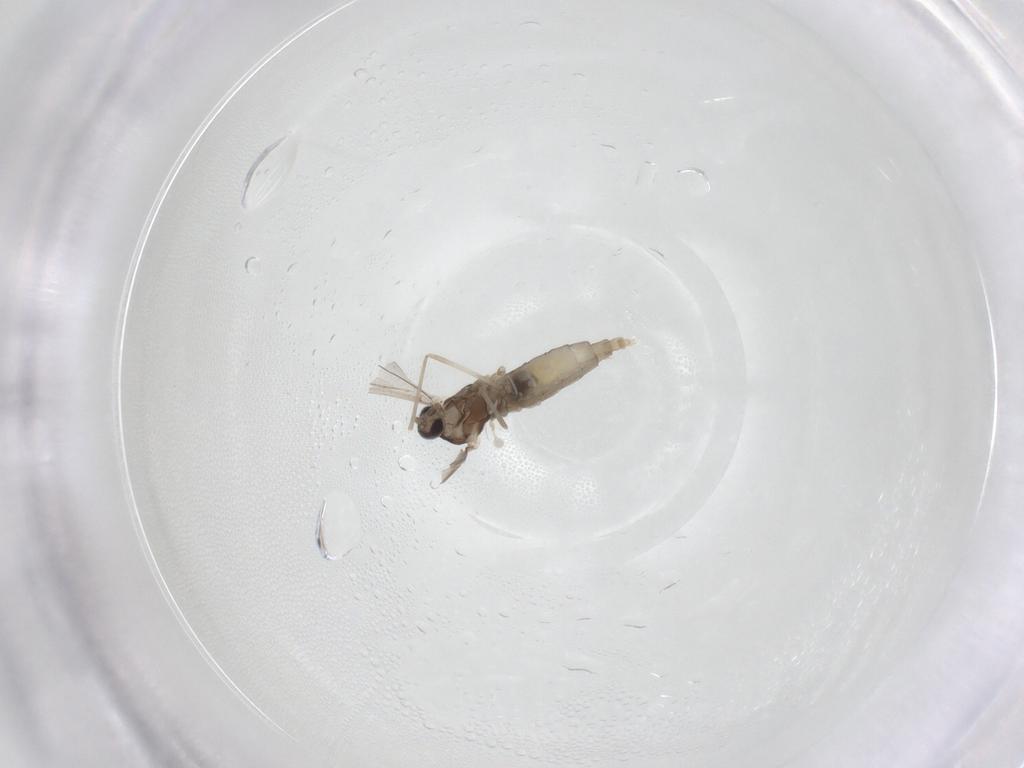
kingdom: Animalia
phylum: Arthropoda
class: Insecta
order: Diptera
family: Cecidomyiidae
